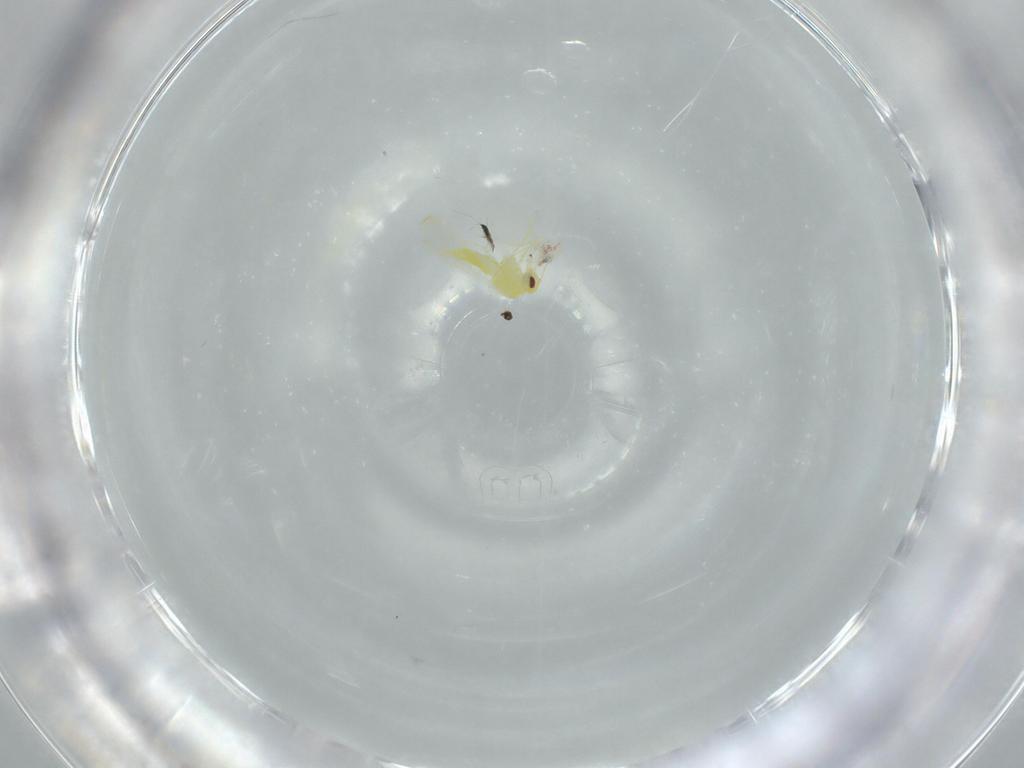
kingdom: Animalia
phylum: Arthropoda
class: Insecta
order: Hemiptera
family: Aleyrodidae
